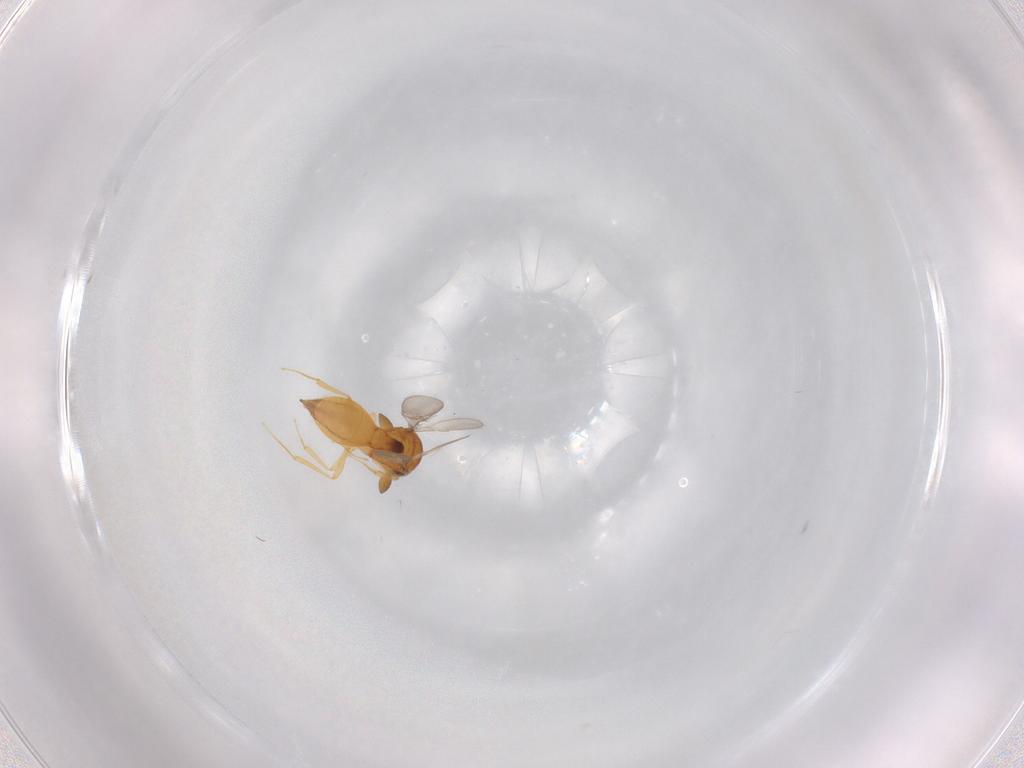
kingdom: Animalia
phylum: Arthropoda
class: Insecta
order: Hymenoptera
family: Scelionidae
